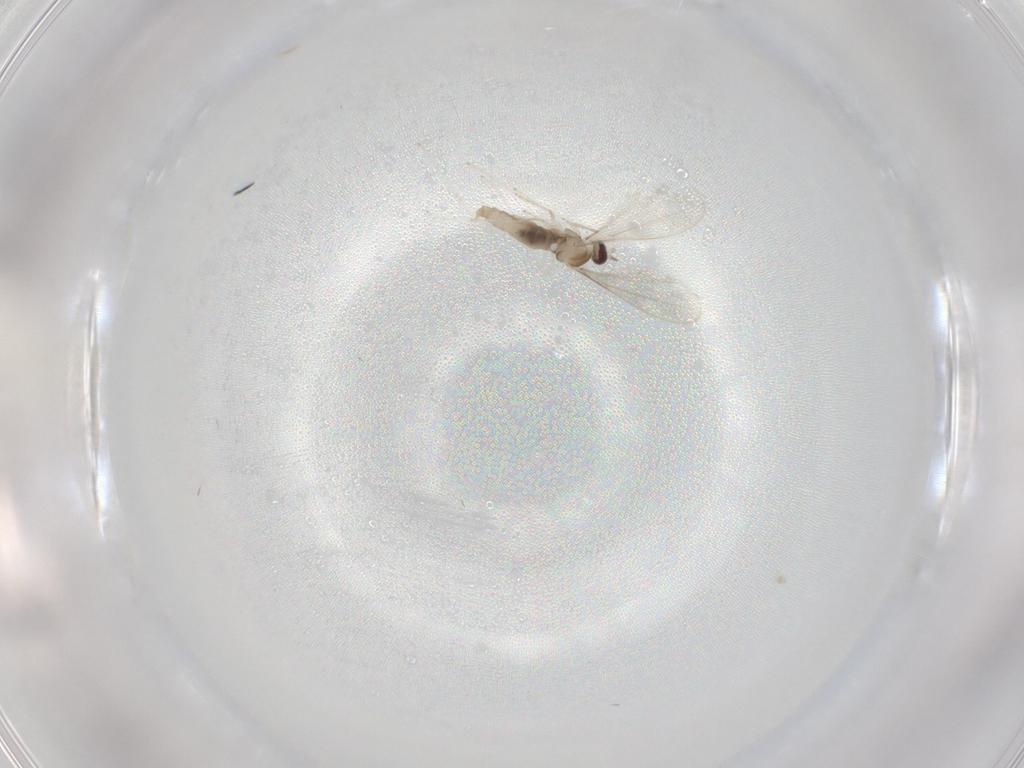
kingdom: Animalia
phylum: Arthropoda
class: Insecta
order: Diptera
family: Cecidomyiidae
